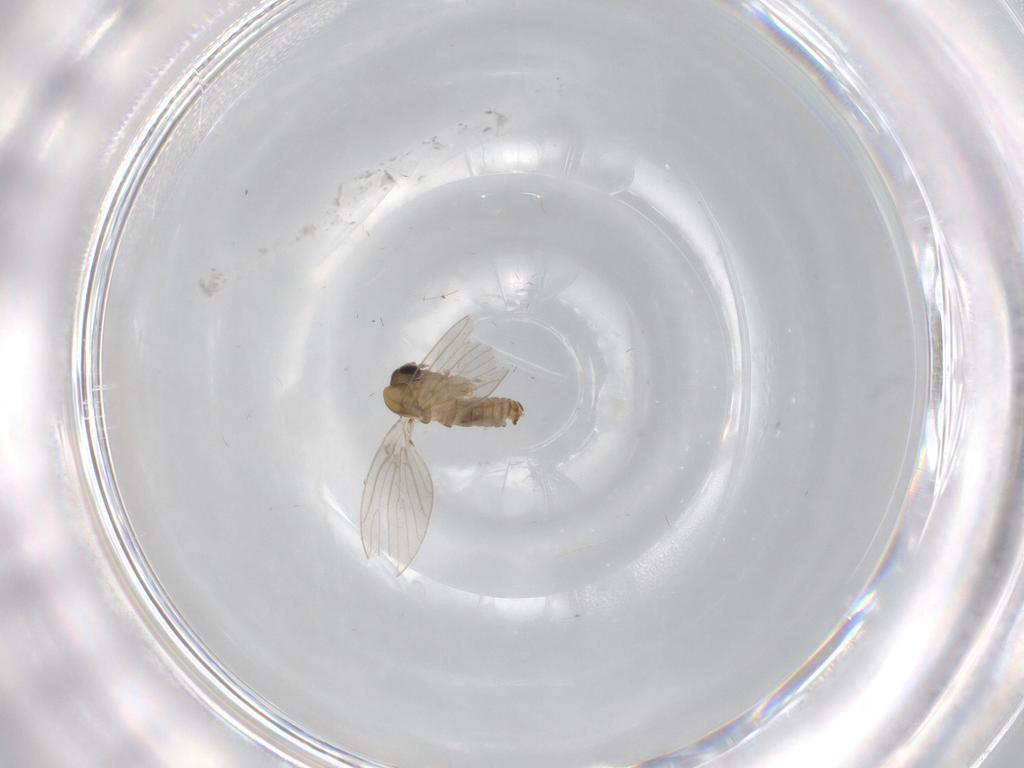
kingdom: Animalia
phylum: Arthropoda
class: Insecta
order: Diptera
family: Psychodidae
